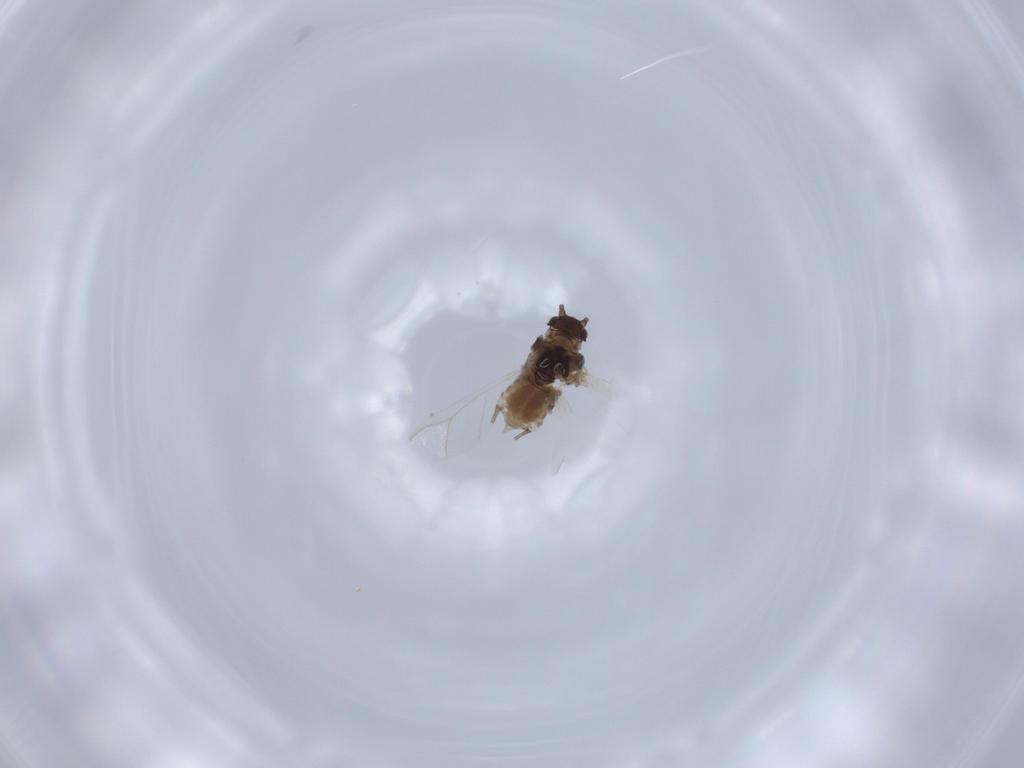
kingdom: Animalia
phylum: Arthropoda
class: Insecta
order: Hemiptera
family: Aphididae
